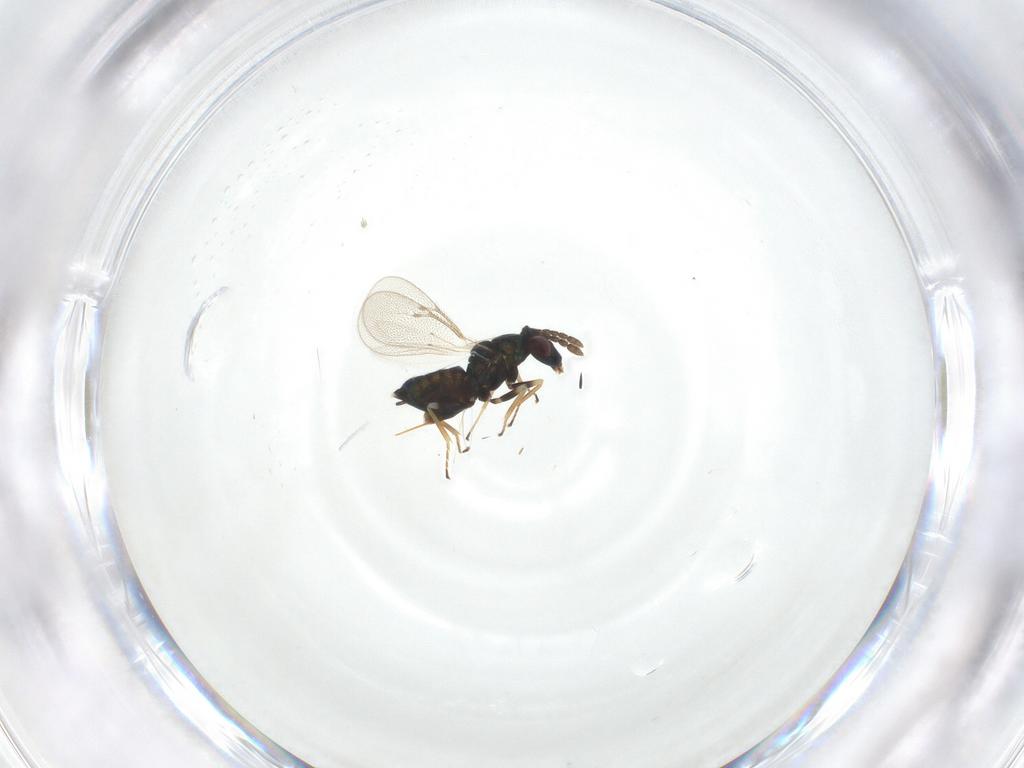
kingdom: Animalia
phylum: Arthropoda
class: Insecta
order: Hymenoptera
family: Eulophidae
